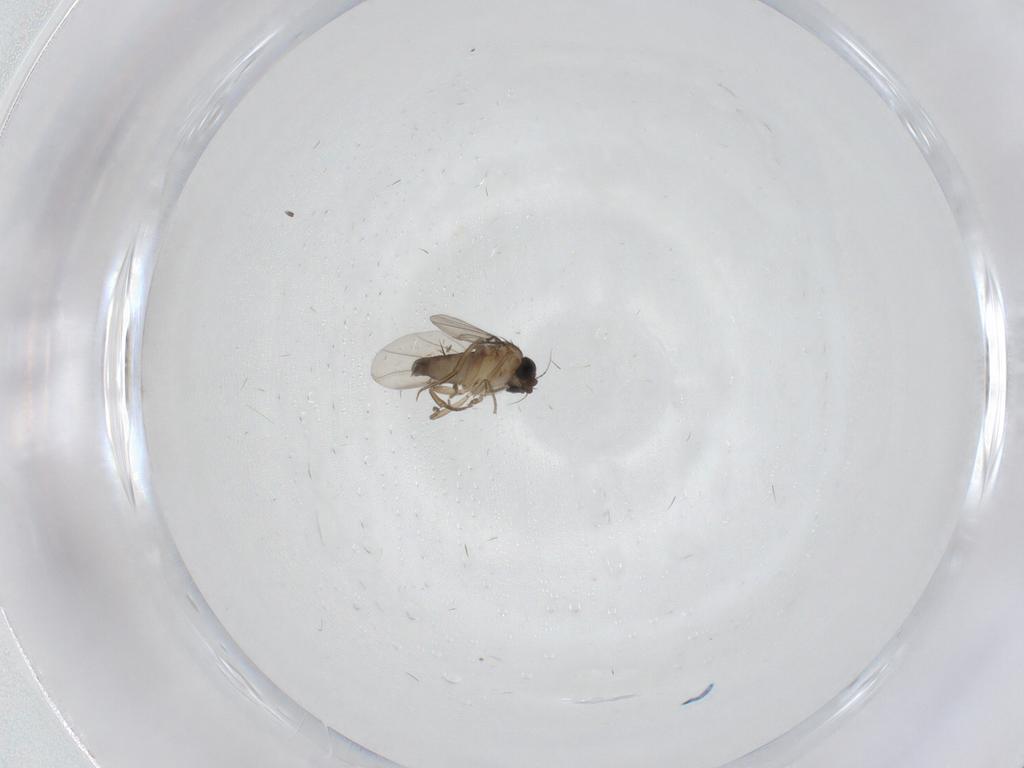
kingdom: Animalia
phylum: Arthropoda
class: Insecta
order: Diptera
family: Phoridae
